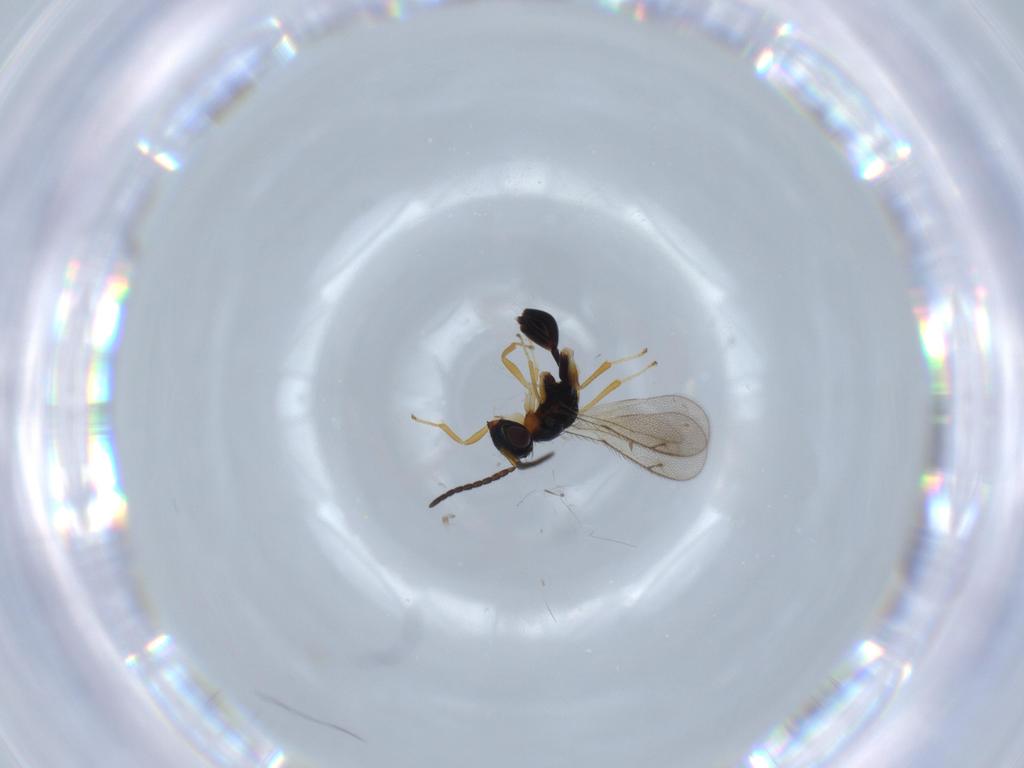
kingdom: Animalia
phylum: Arthropoda
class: Insecta
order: Hymenoptera
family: Diparidae
